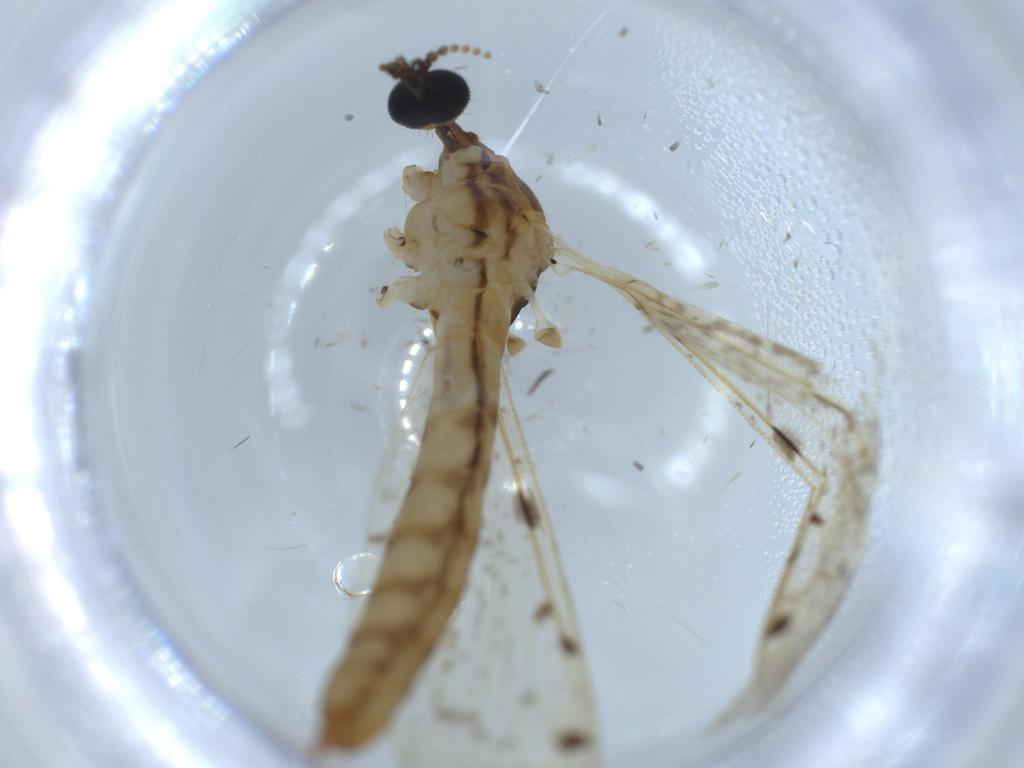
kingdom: Animalia
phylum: Arthropoda
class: Insecta
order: Diptera
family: Limoniidae
